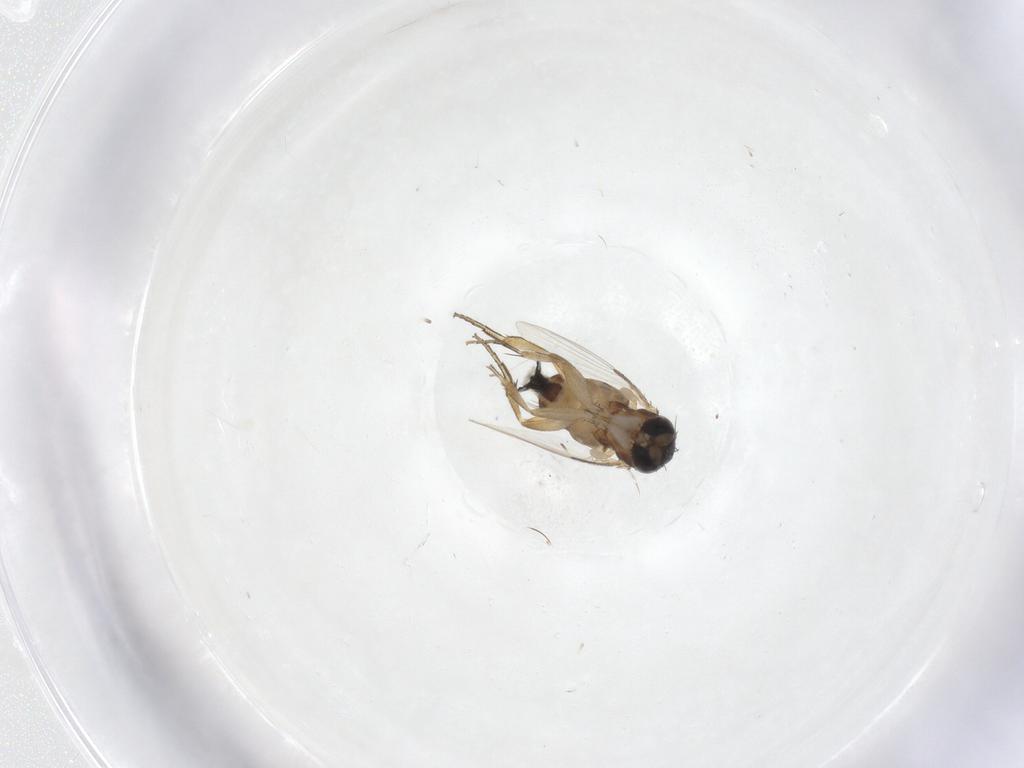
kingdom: Animalia
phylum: Arthropoda
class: Insecta
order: Diptera
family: Phoridae
